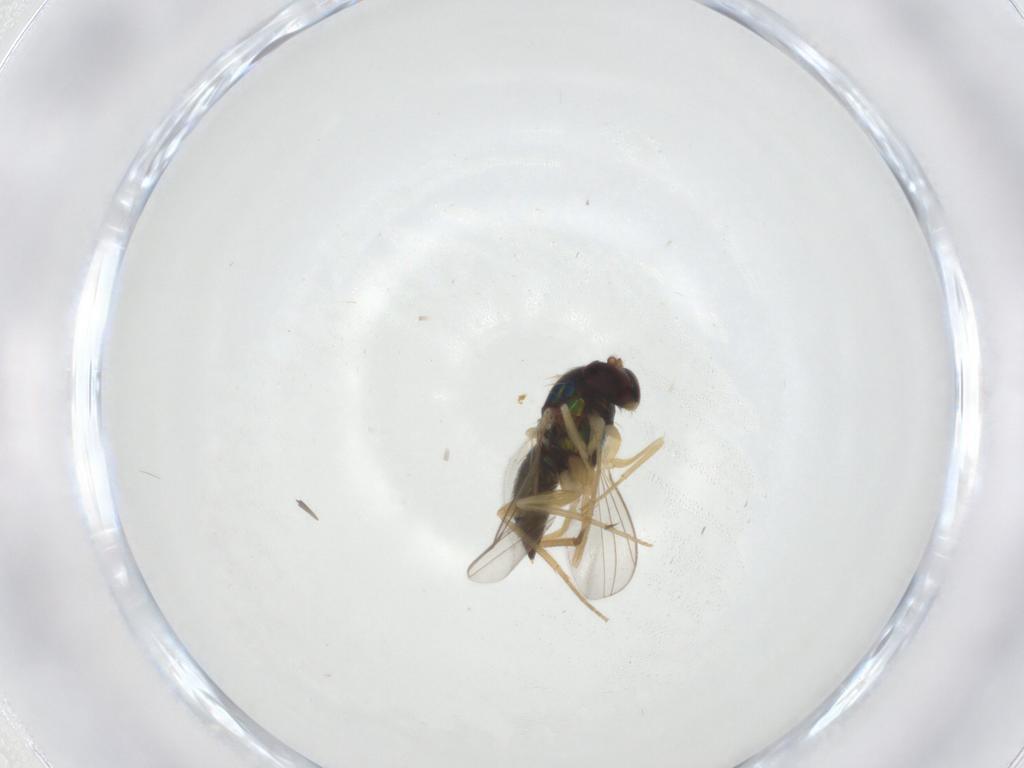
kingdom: Animalia
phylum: Arthropoda
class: Insecta
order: Diptera
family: Dolichopodidae
